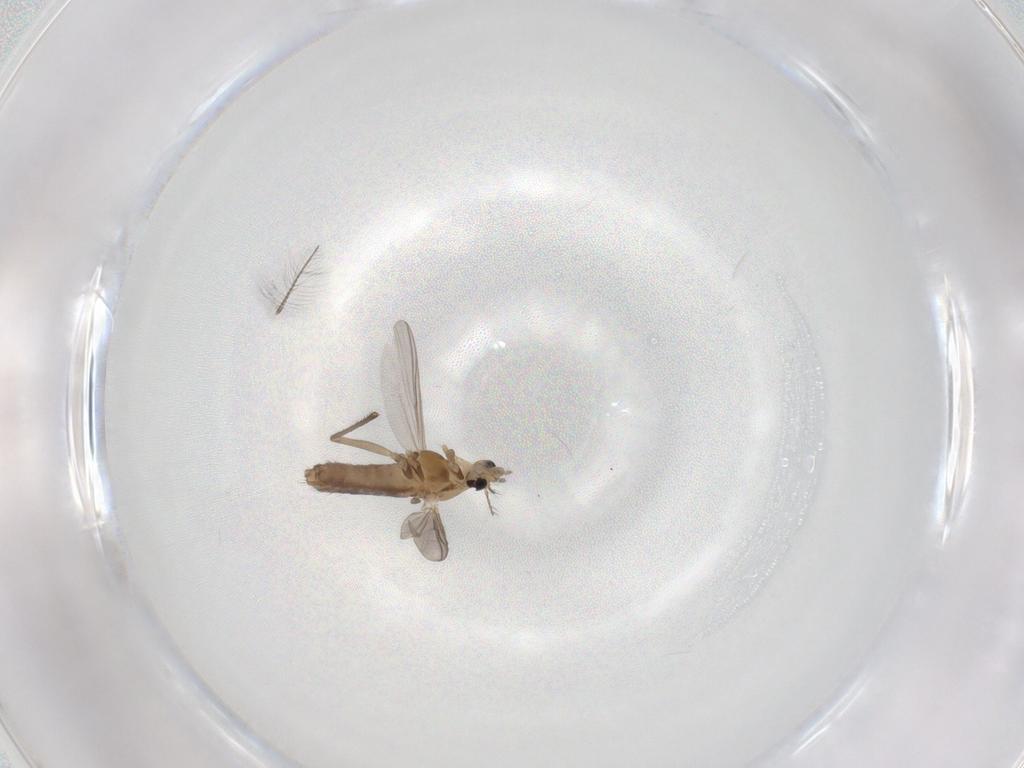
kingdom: Animalia
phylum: Arthropoda
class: Insecta
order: Diptera
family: Chironomidae
